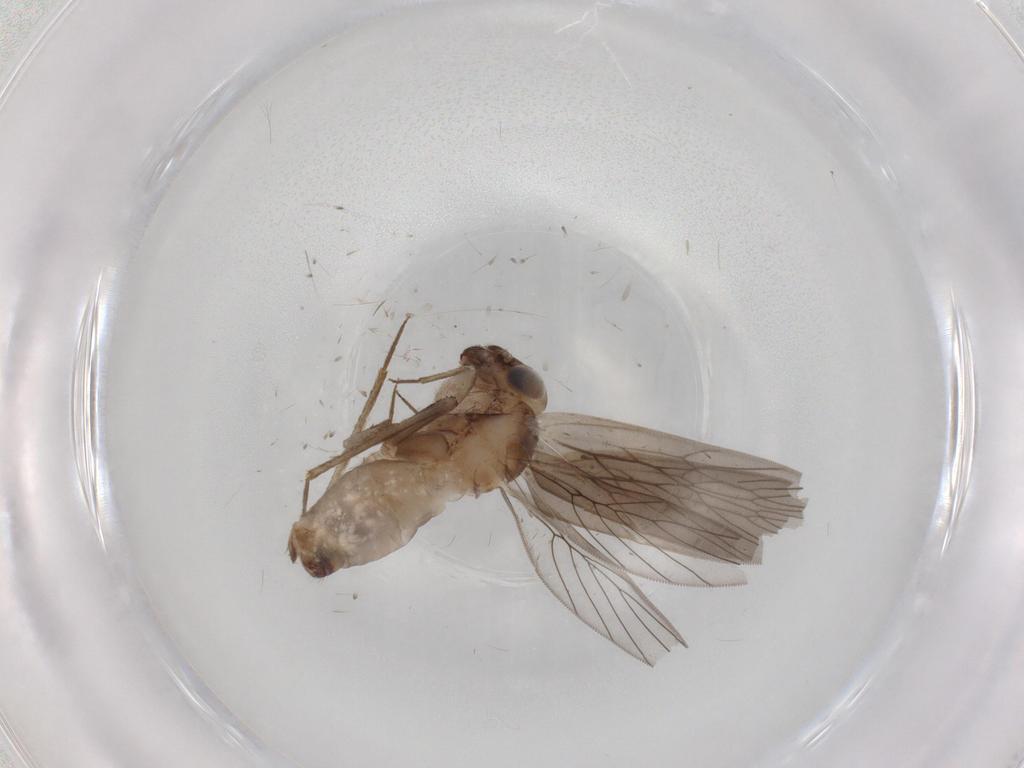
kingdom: Animalia
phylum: Arthropoda
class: Insecta
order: Psocodea
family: Lepidopsocidae
